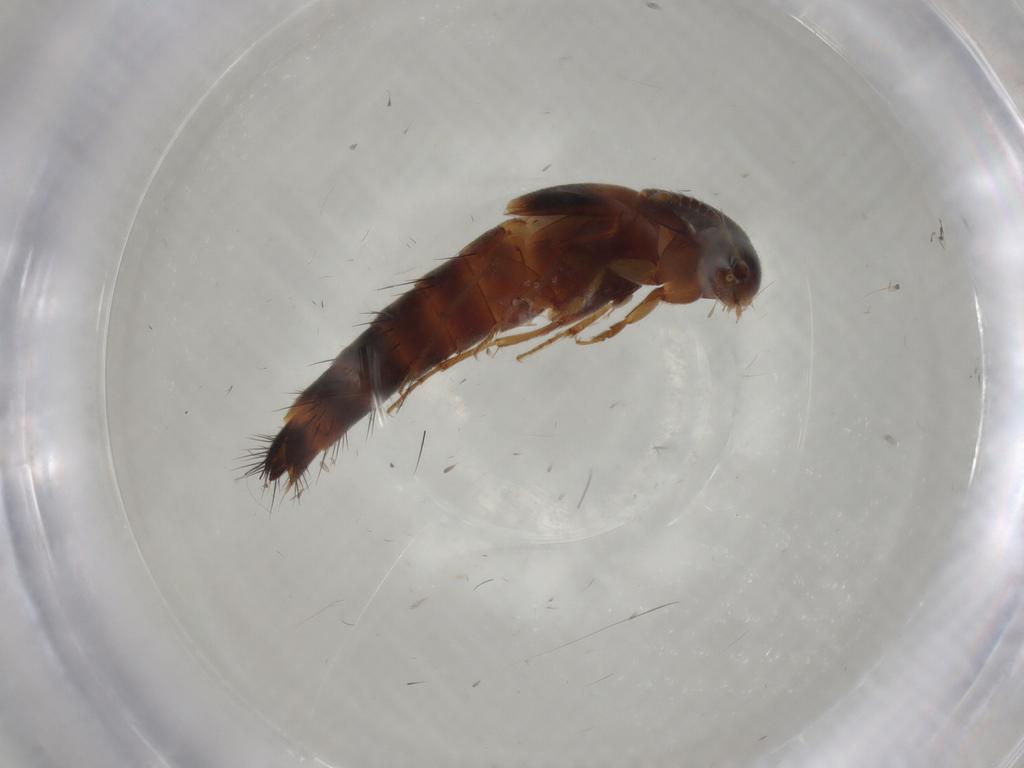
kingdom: Animalia
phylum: Arthropoda
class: Insecta
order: Coleoptera
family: Staphylinidae
